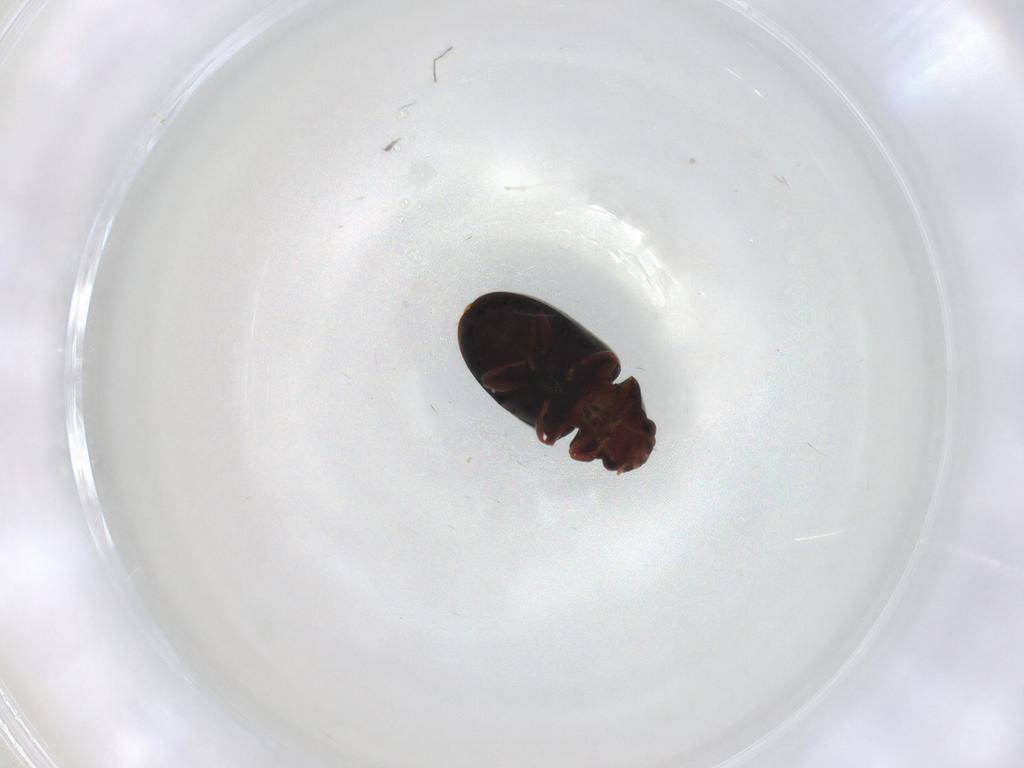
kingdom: Animalia
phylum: Arthropoda
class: Insecta
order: Coleoptera
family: Ptinidae
